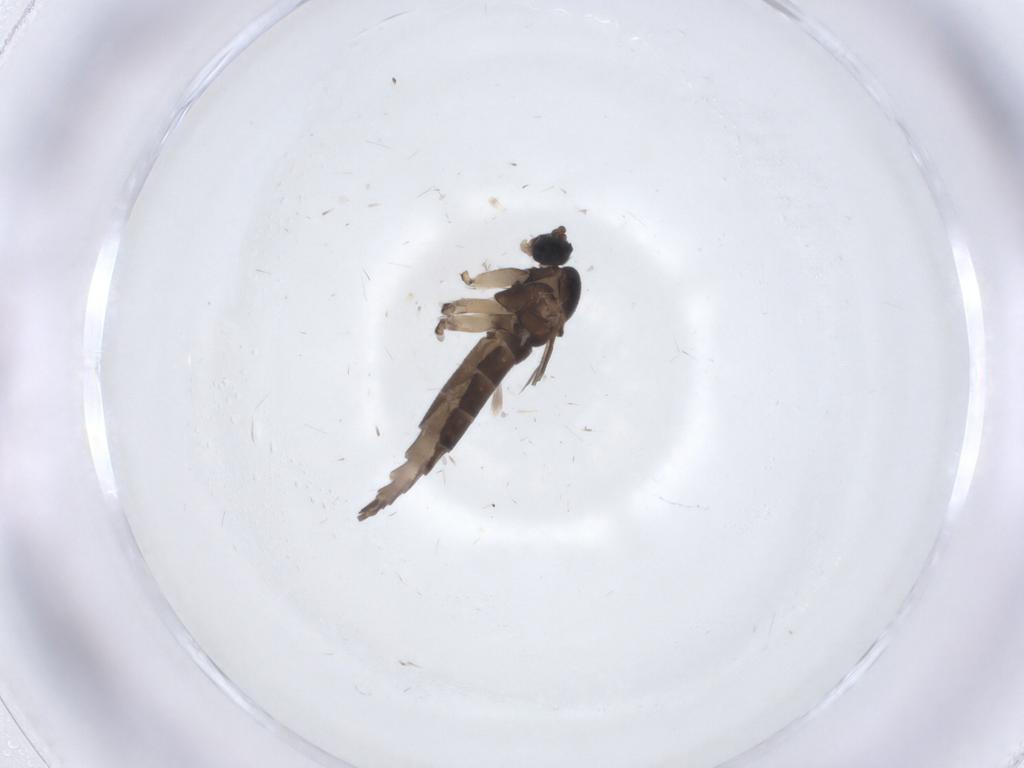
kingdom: Animalia
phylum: Arthropoda
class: Insecta
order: Diptera
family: Sciaridae
